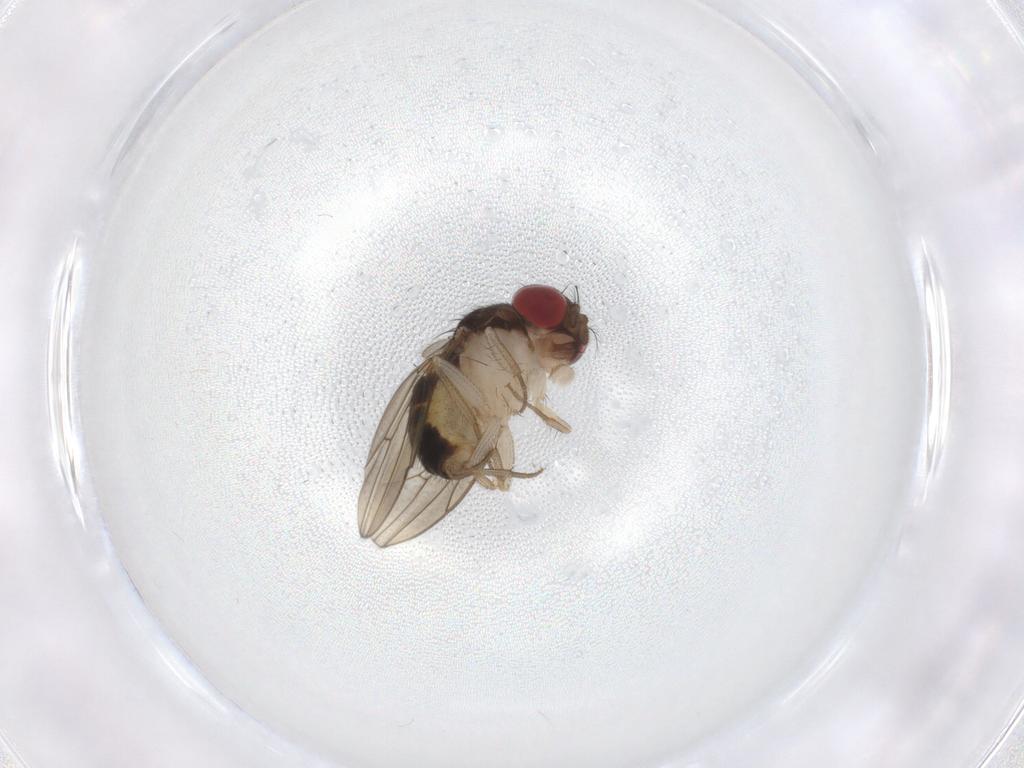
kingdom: Animalia
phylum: Arthropoda
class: Insecta
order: Diptera
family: Drosophilidae
